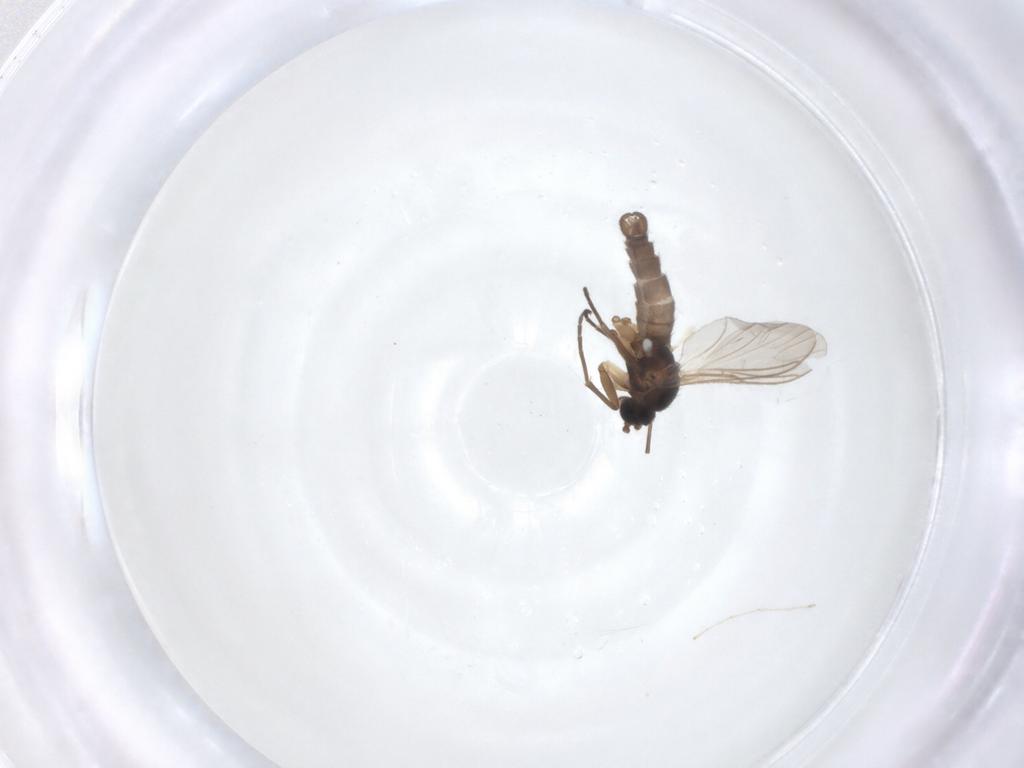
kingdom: Animalia
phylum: Arthropoda
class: Insecta
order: Diptera
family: Sciaridae
